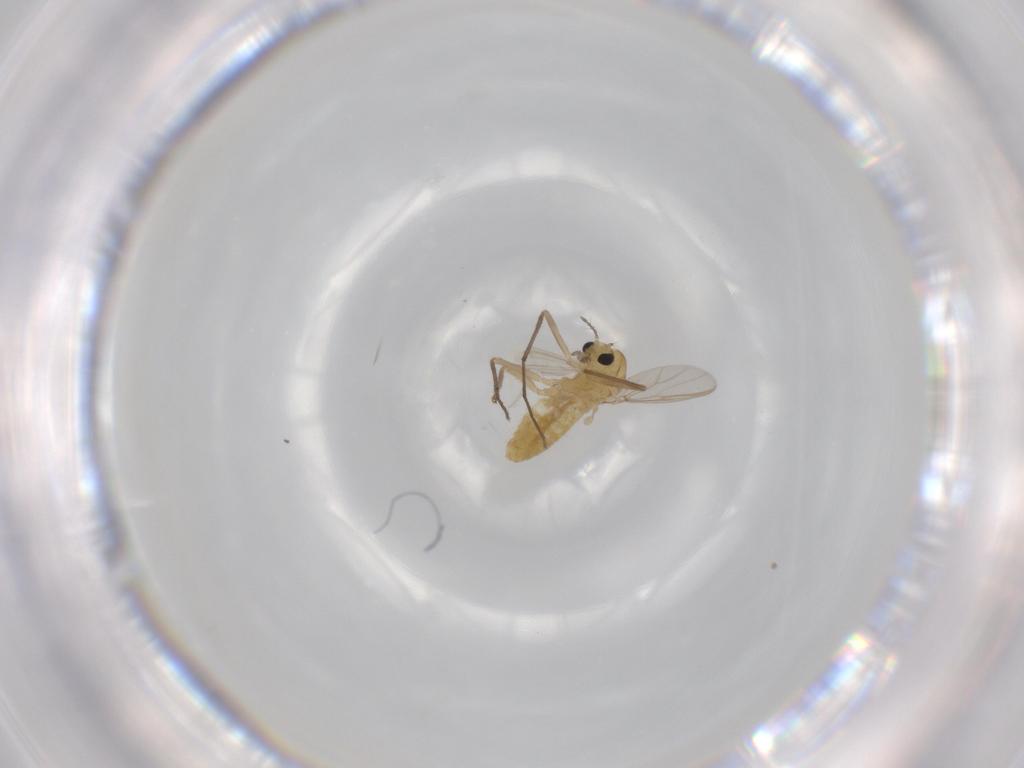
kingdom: Animalia
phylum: Arthropoda
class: Insecta
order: Diptera
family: Chironomidae
